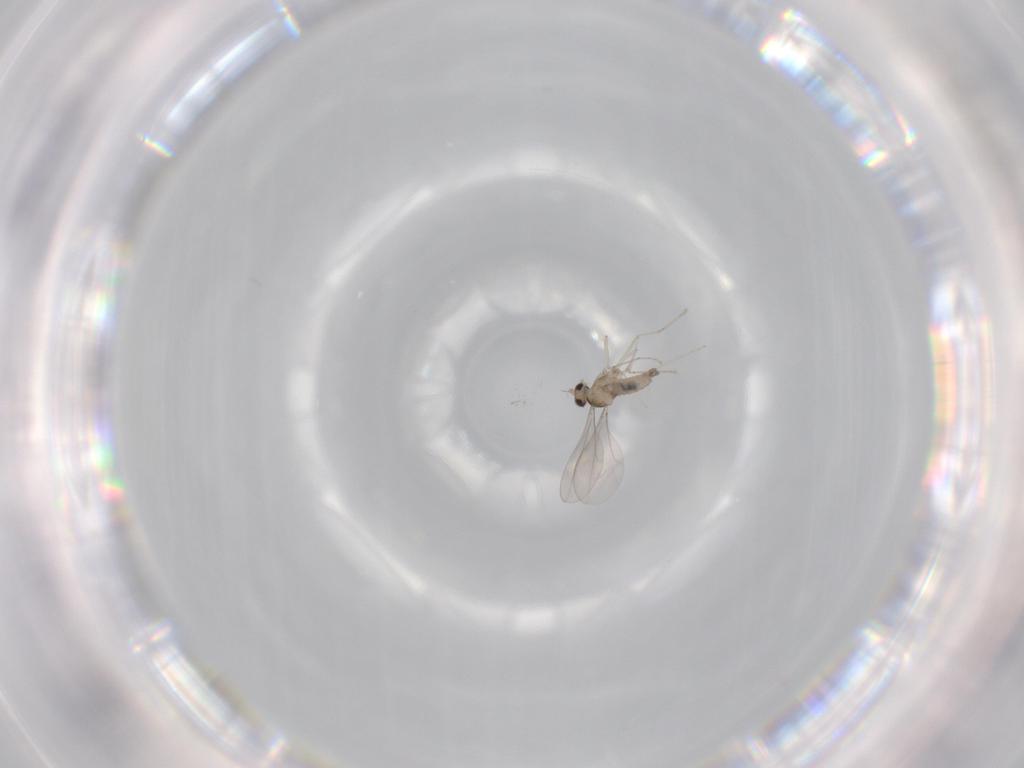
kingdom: Animalia
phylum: Arthropoda
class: Insecta
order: Diptera
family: Cecidomyiidae
